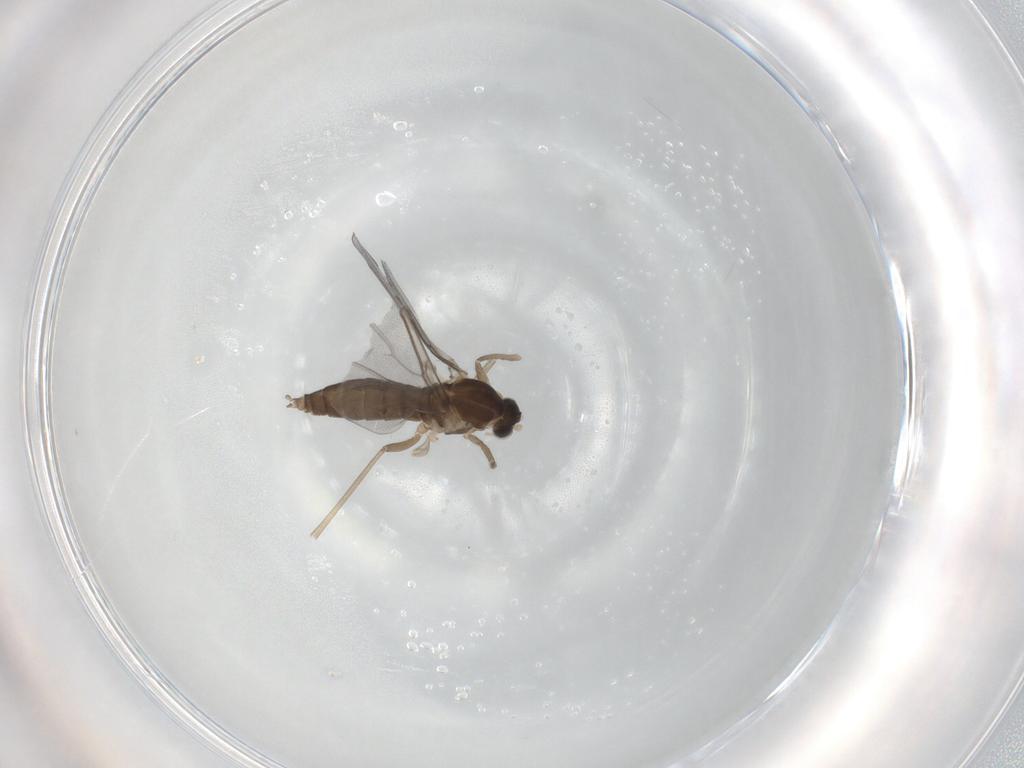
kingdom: Animalia
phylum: Arthropoda
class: Insecta
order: Diptera
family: Cecidomyiidae
